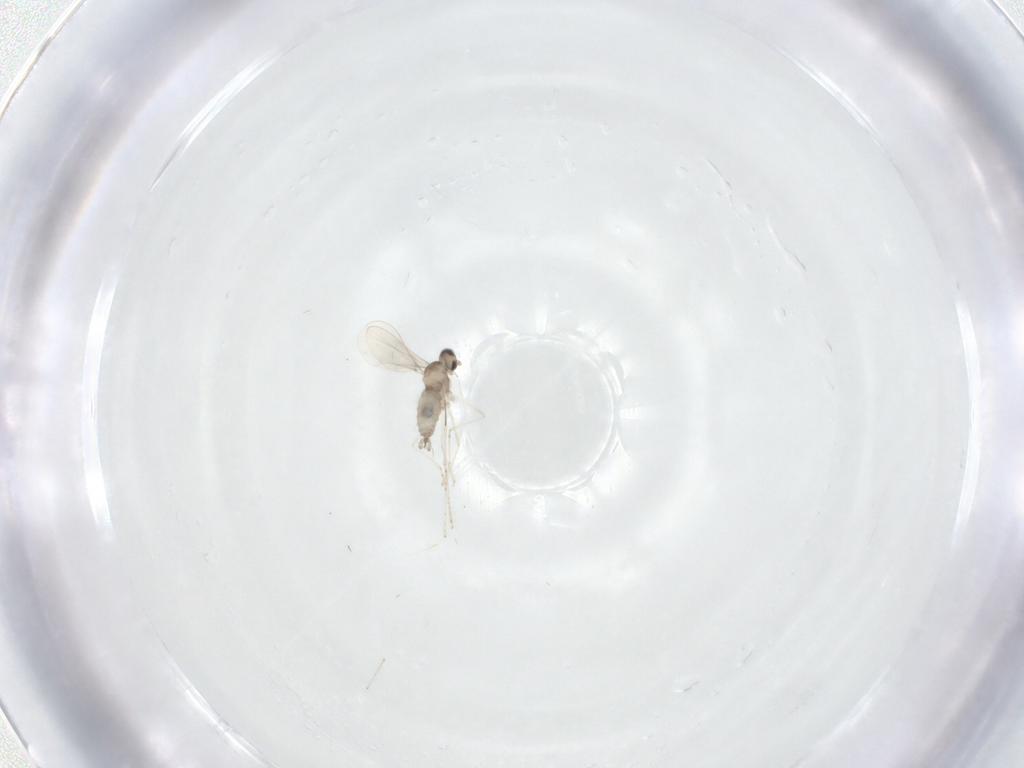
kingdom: Animalia
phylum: Arthropoda
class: Insecta
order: Diptera
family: Cecidomyiidae
